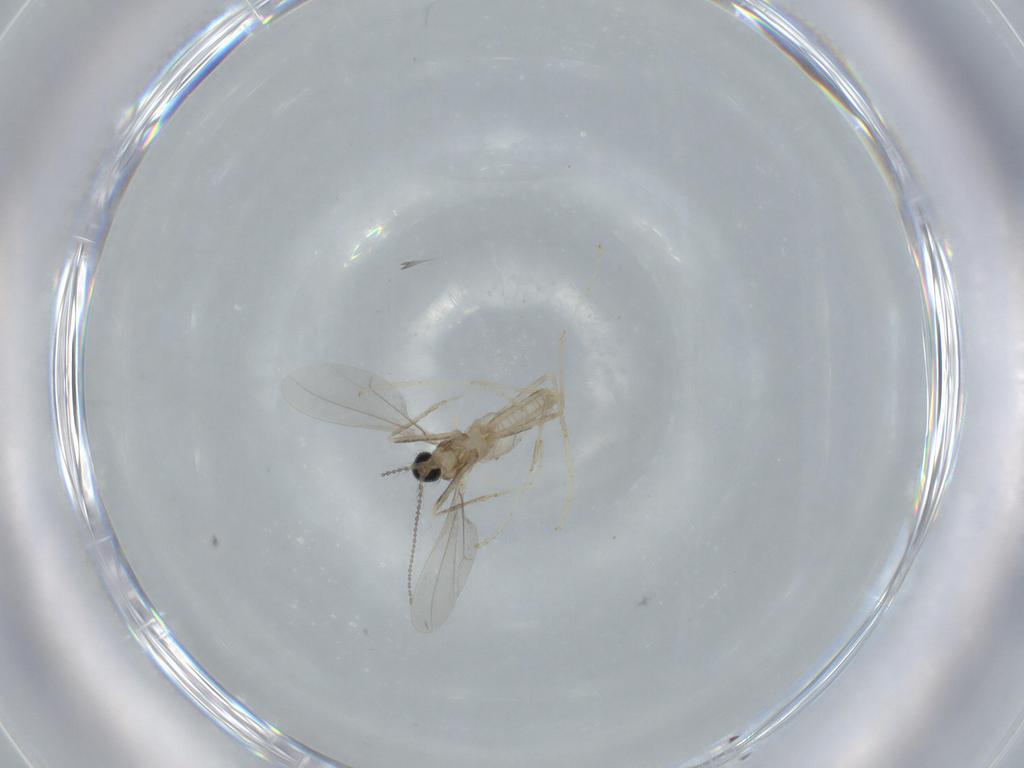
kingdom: Animalia
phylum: Arthropoda
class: Insecta
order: Diptera
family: Cecidomyiidae
